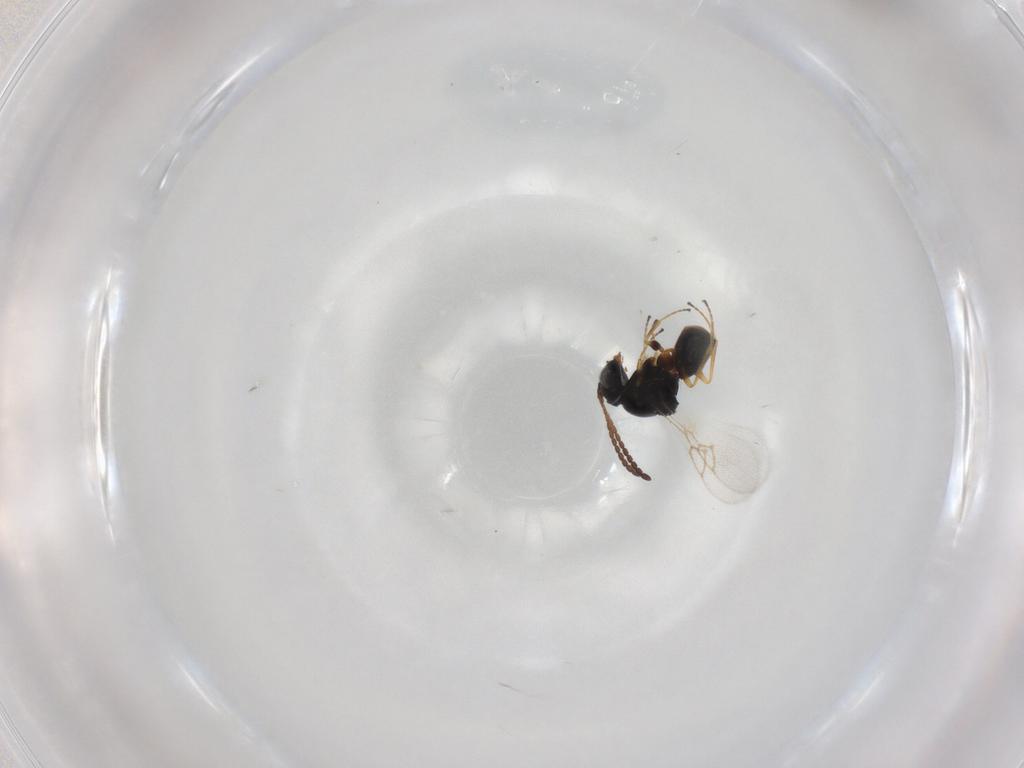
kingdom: Animalia
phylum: Arthropoda
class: Insecta
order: Hymenoptera
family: Figitidae
